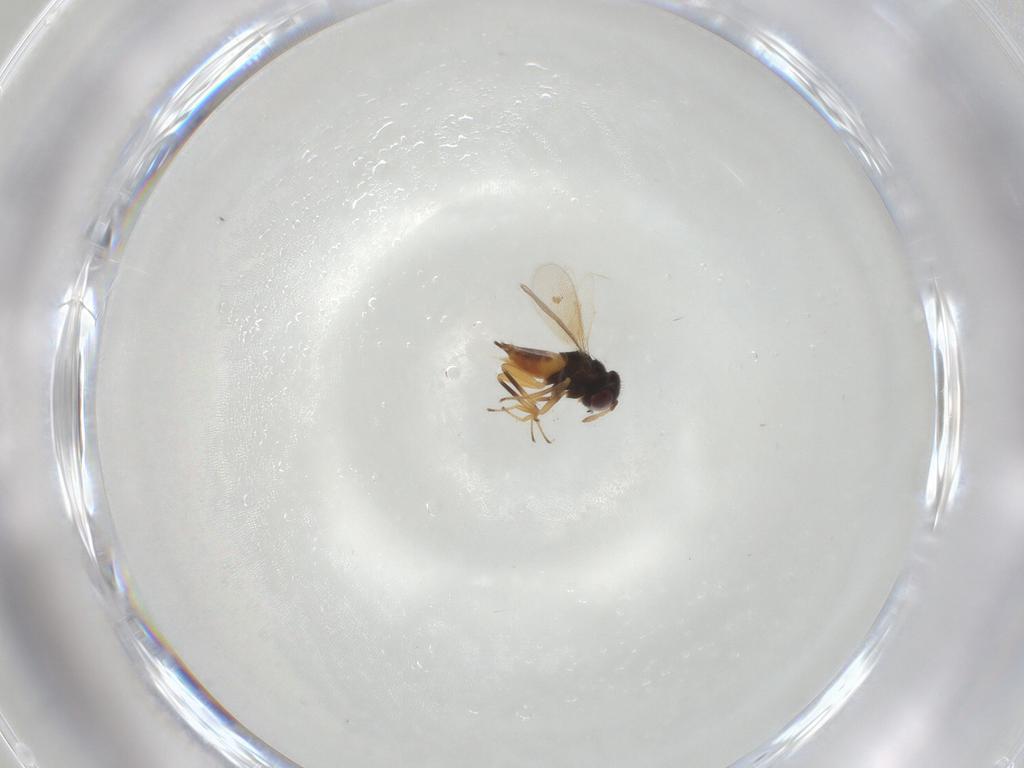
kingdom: Animalia
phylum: Arthropoda
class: Insecta
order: Hymenoptera
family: Aphelinidae
